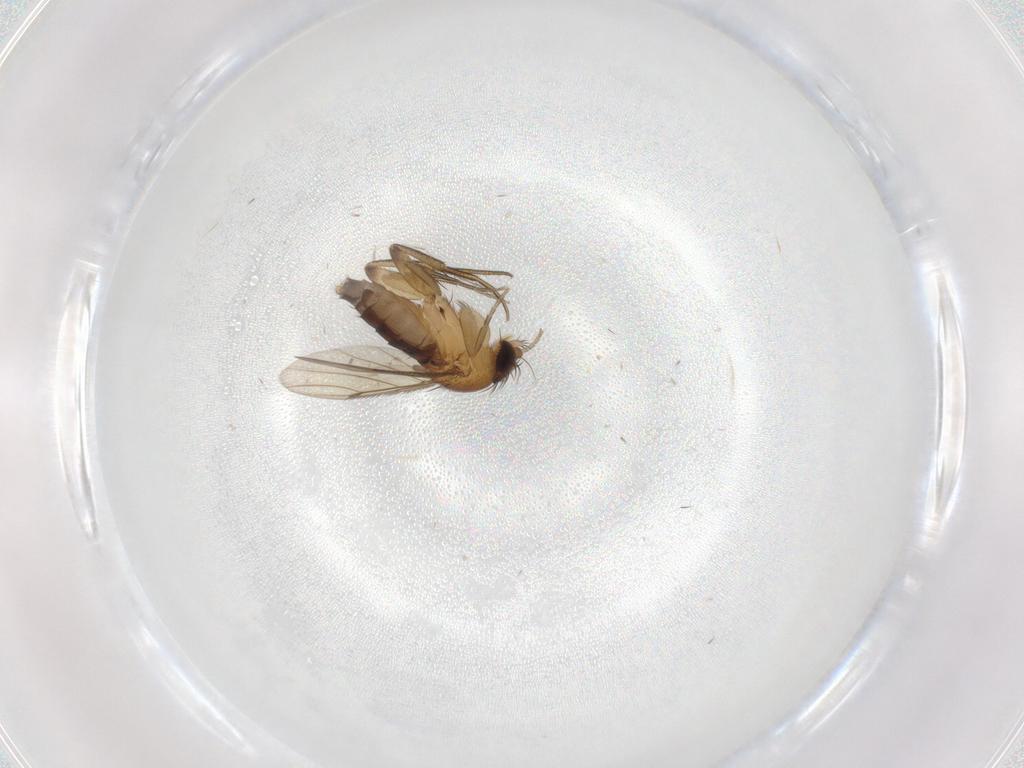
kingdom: Animalia
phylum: Arthropoda
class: Insecta
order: Diptera
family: Phoridae
